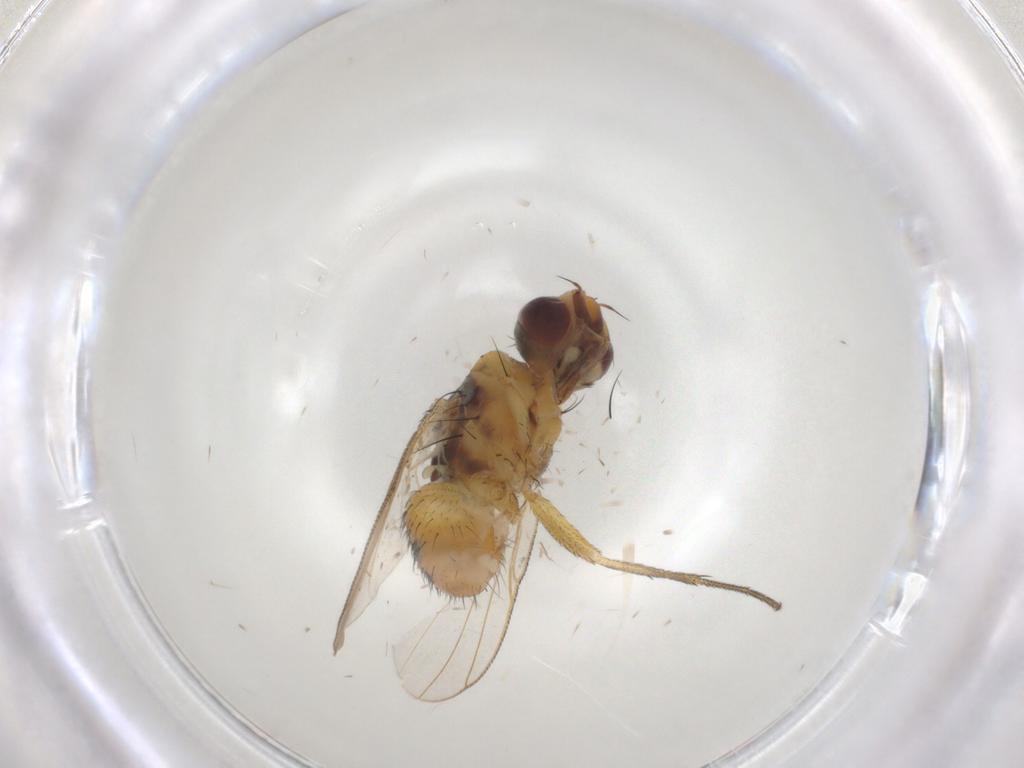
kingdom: Animalia
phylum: Arthropoda
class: Insecta
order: Diptera
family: Muscidae
